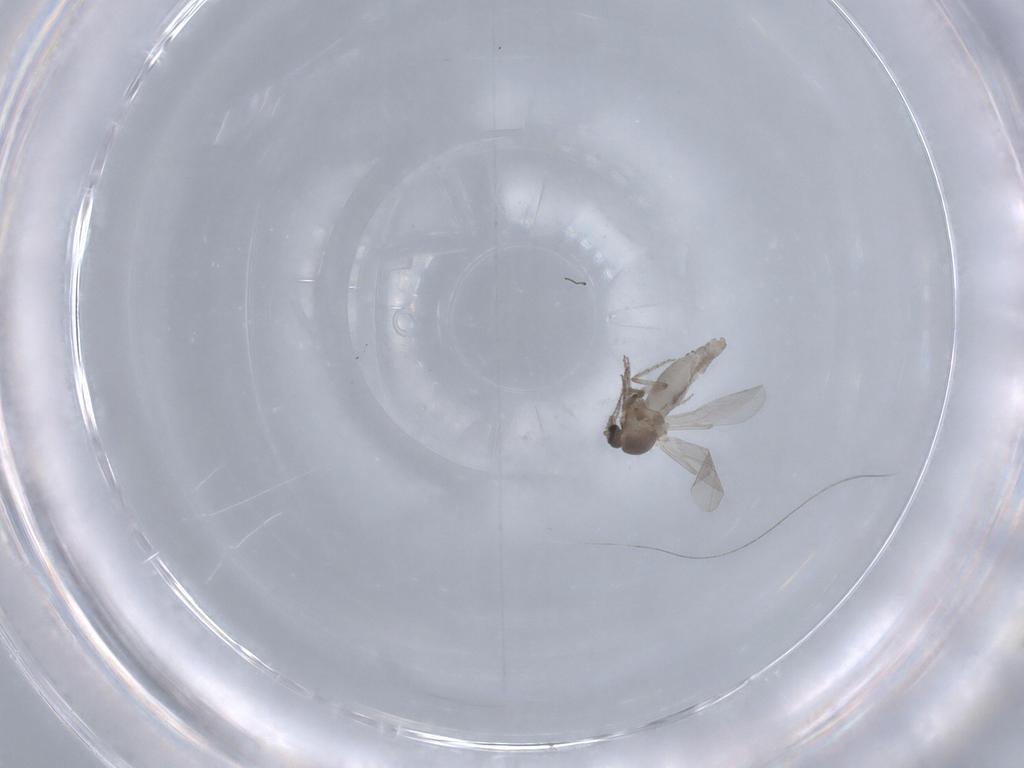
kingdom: Animalia
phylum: Arthropoda
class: Insecta
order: Diptera
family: Ceratopogonidae
